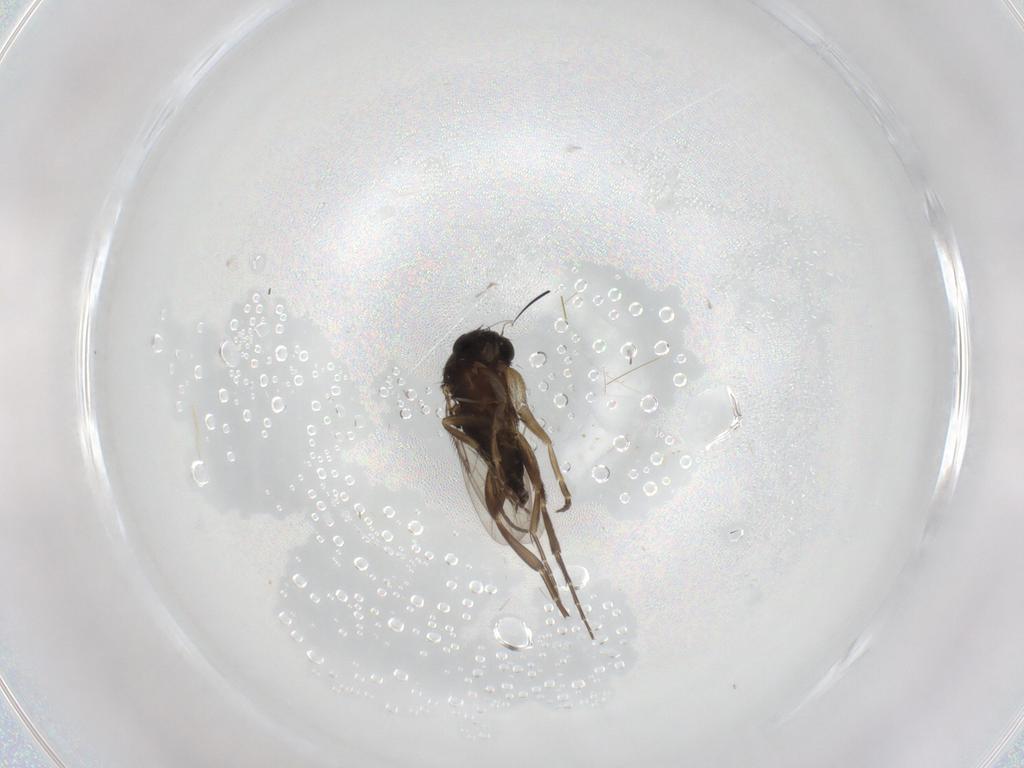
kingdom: Animalia
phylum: Arthropoda
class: Insecta
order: Diptera
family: Phoridae
